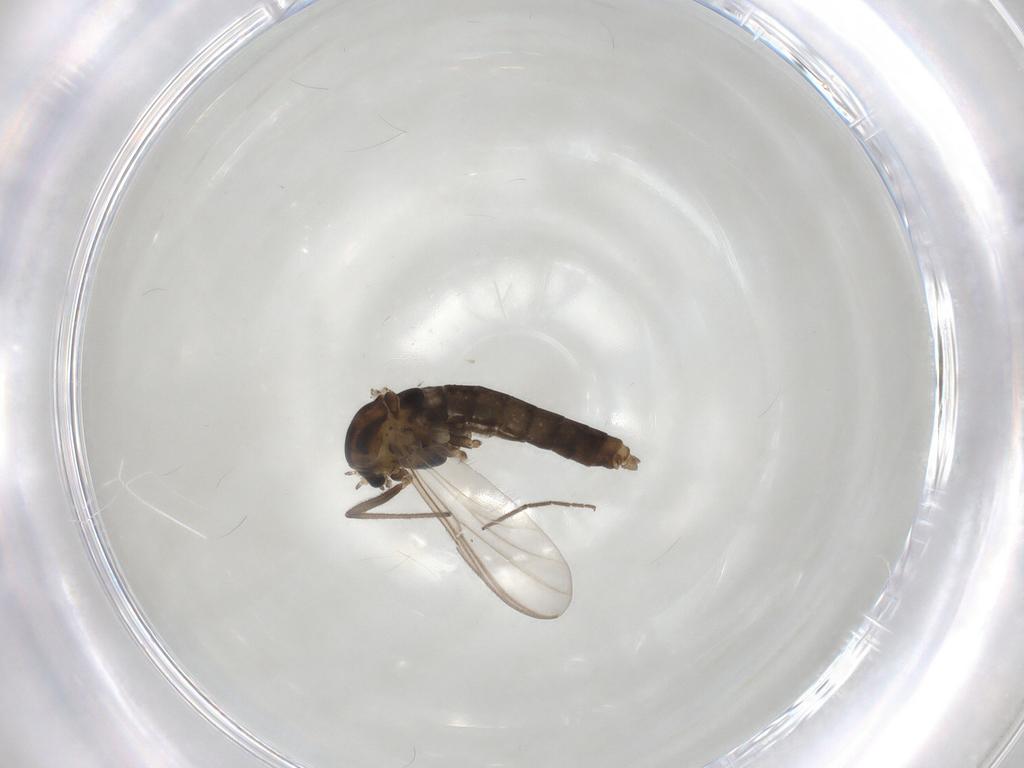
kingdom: Animalia
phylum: Arthropoda
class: Insecta
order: Diptera
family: Chironomidae
